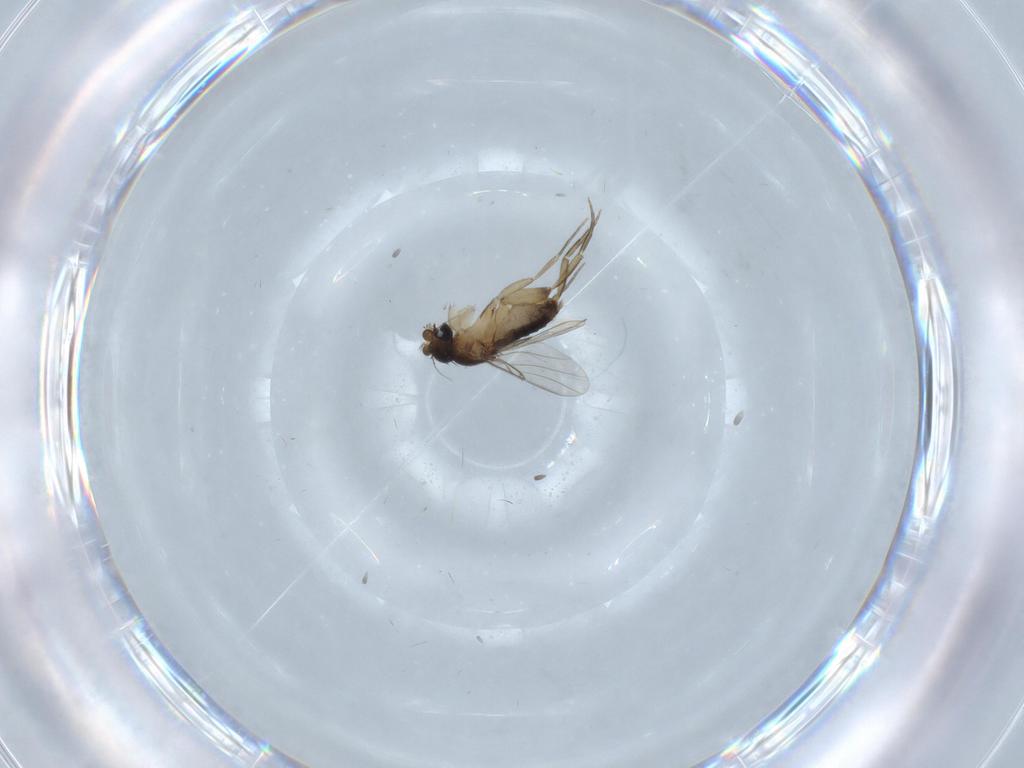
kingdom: Animalia
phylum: Arthropoda
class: Insecta
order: Diptera
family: Phoridae
